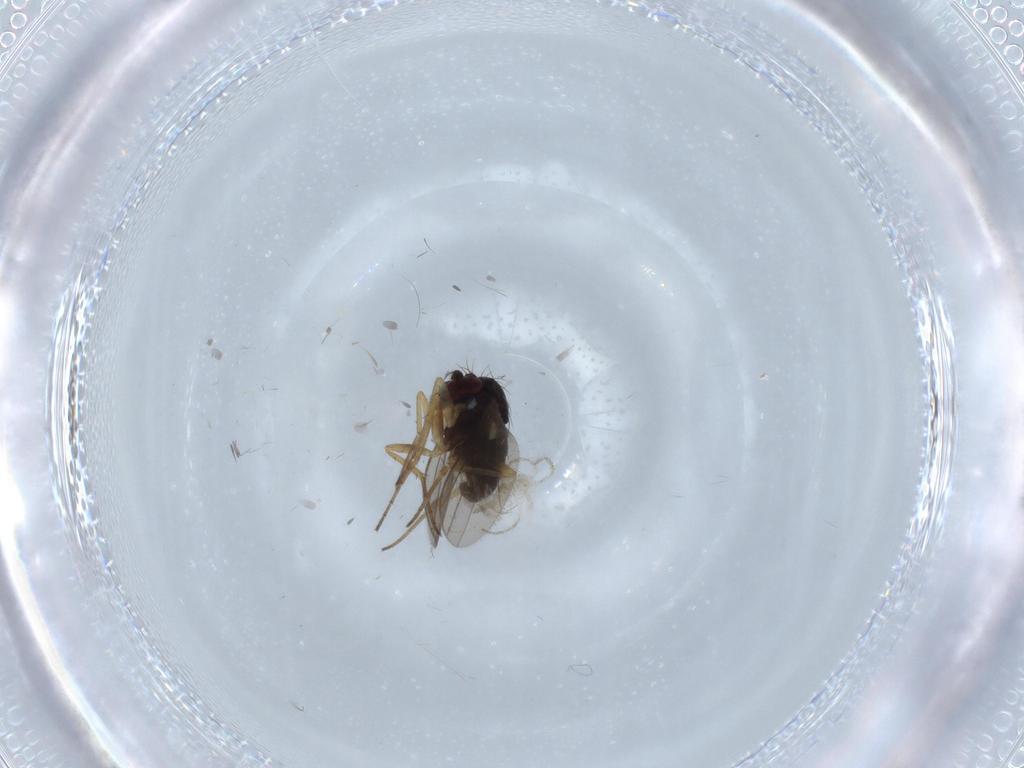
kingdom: Animalia
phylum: Arthropoda
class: Insecta
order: Diptera
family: Dolichopodidae
